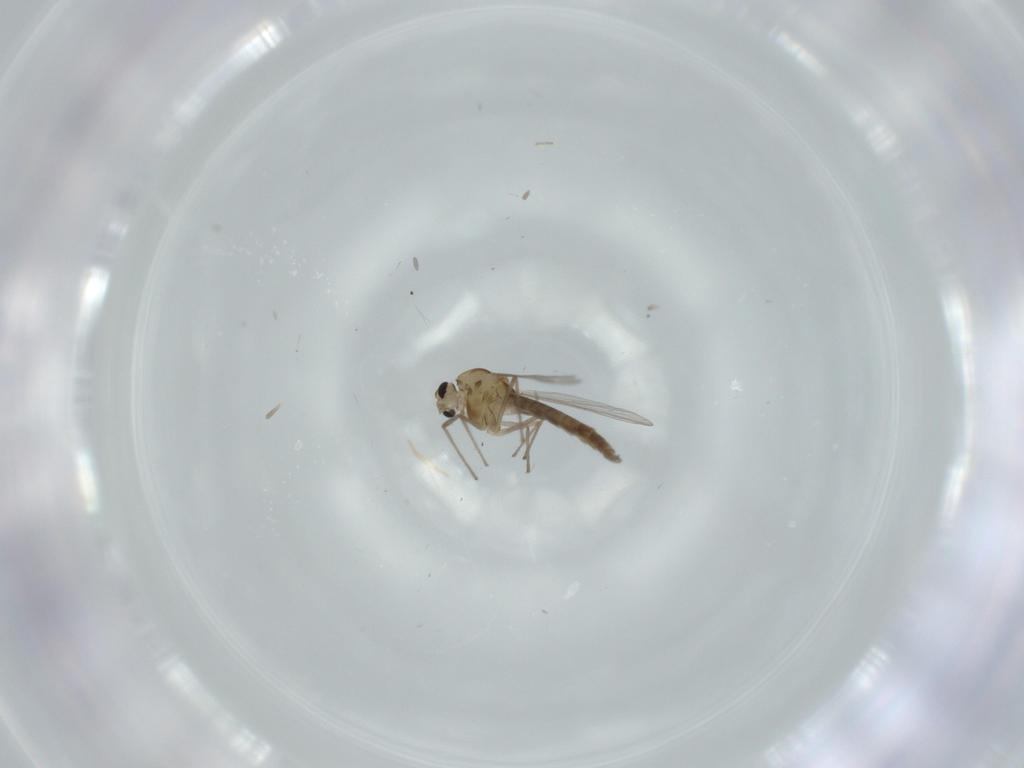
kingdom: Animalia
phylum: Arthropoda
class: Insecta
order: Diptera
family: Chironomidae
